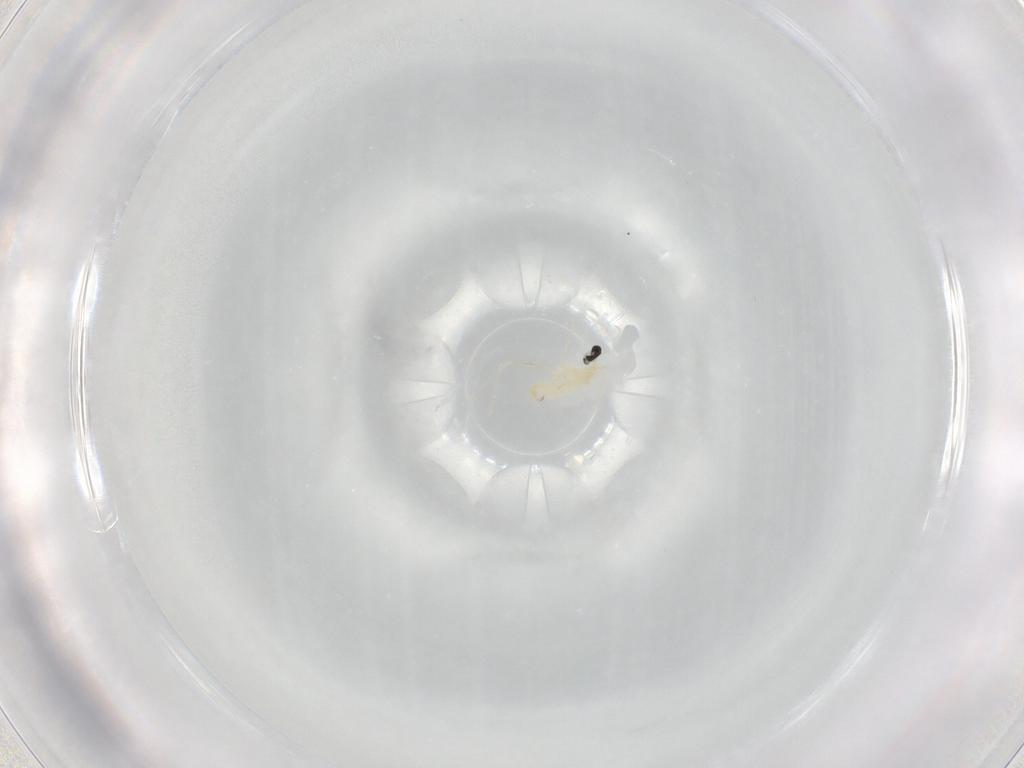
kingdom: Animalia
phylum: Arthropoda
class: Insecta
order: Diptera
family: Cecidomyiidae
